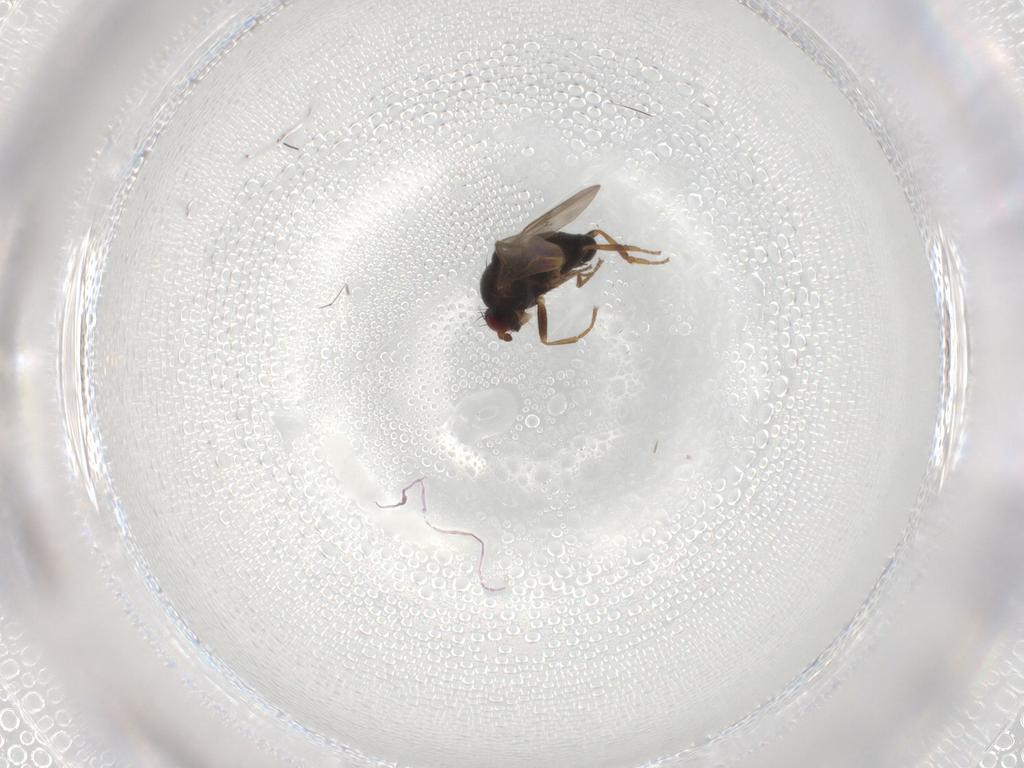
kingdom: Animalia
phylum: Arthropoda
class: Insecta
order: Diptera
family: Sphaeroceridae
